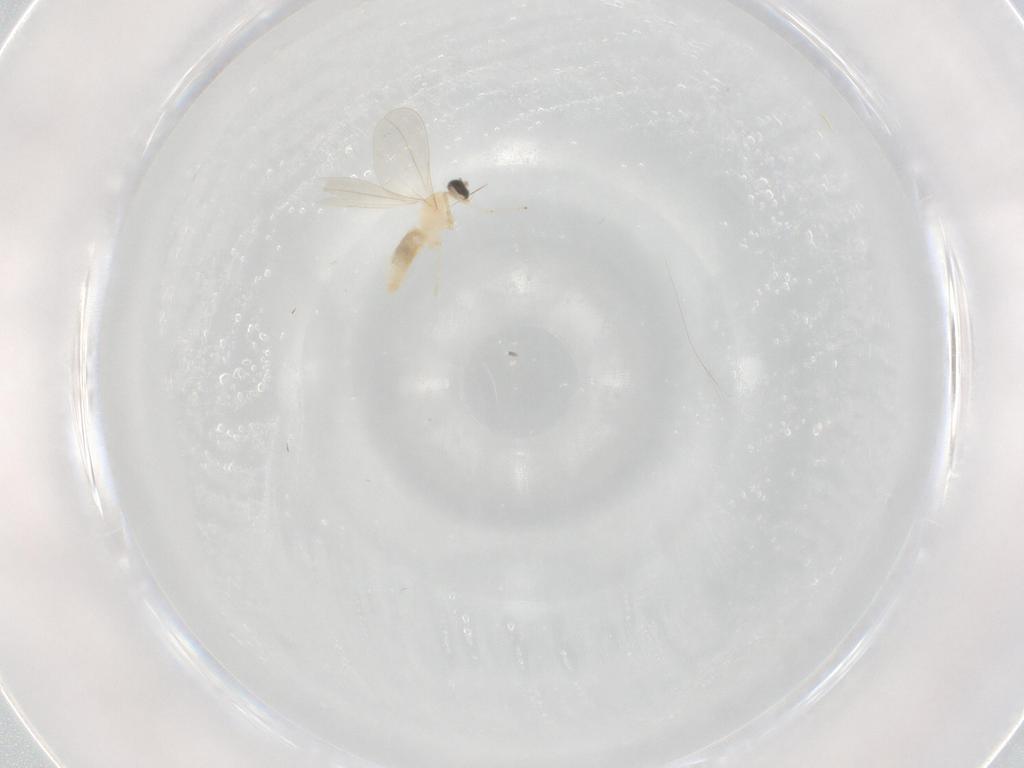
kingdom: Animalia
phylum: Arthropoda
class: Insecta
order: Diptera
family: Cecidomyiidae
